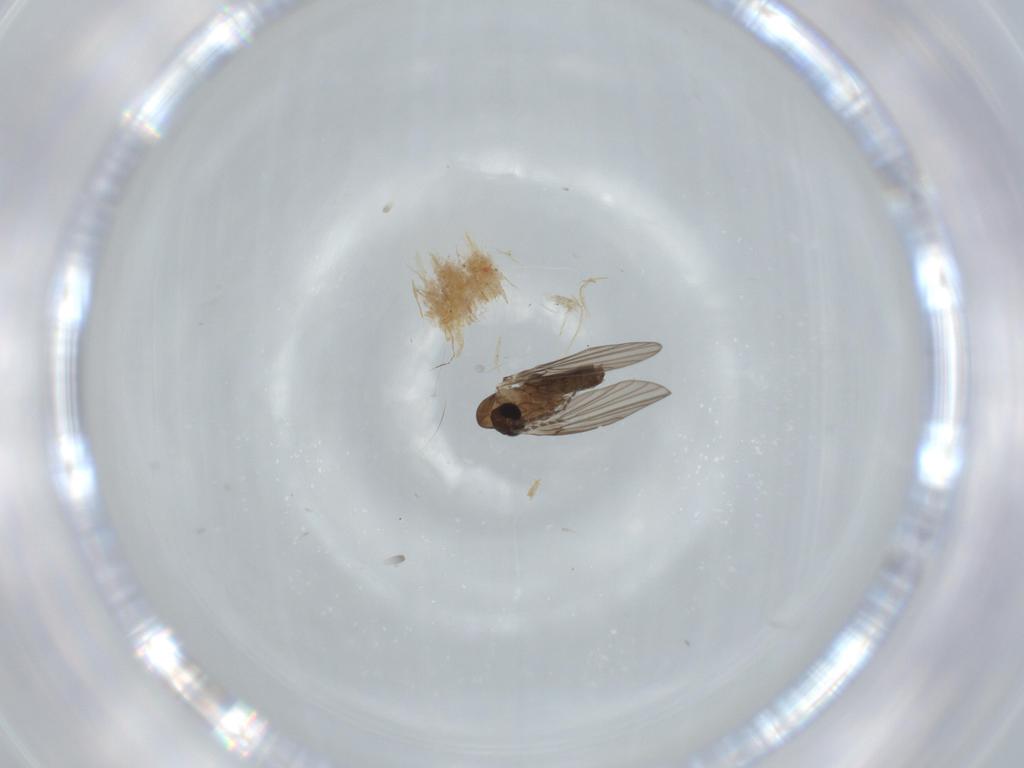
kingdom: Animalia
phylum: Arthropoda
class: Insecta
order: Diptera
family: Psychodidae
